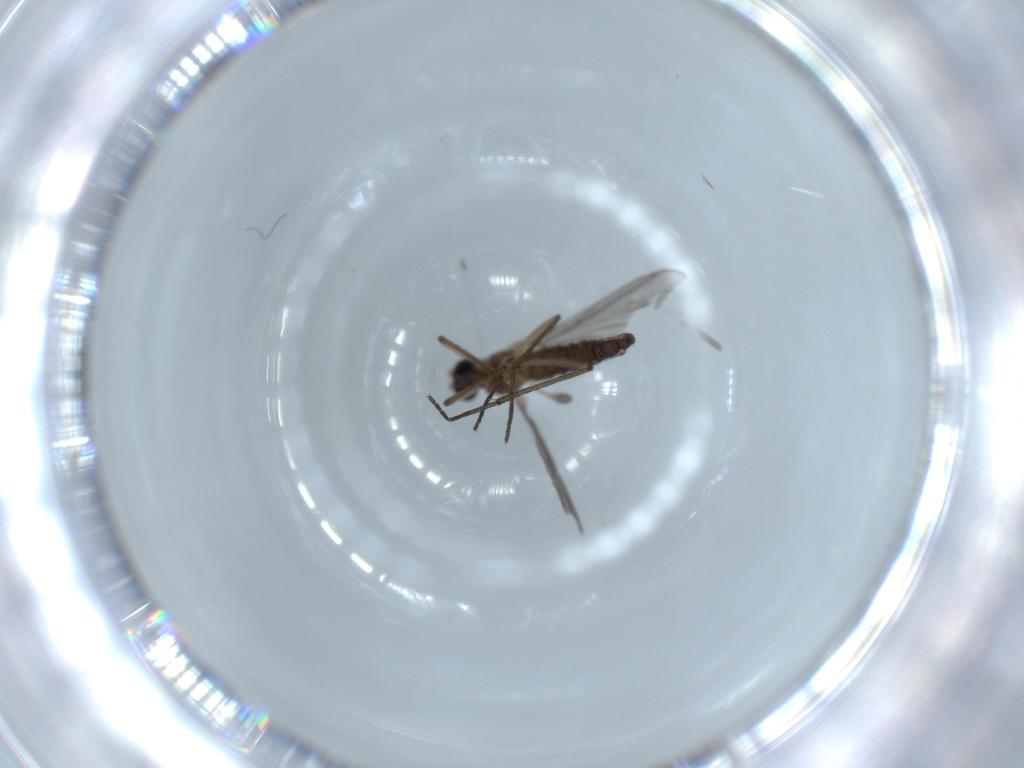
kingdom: Animalia
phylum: Arthropoda
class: Insecta
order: Diptera
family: Sciaridae
